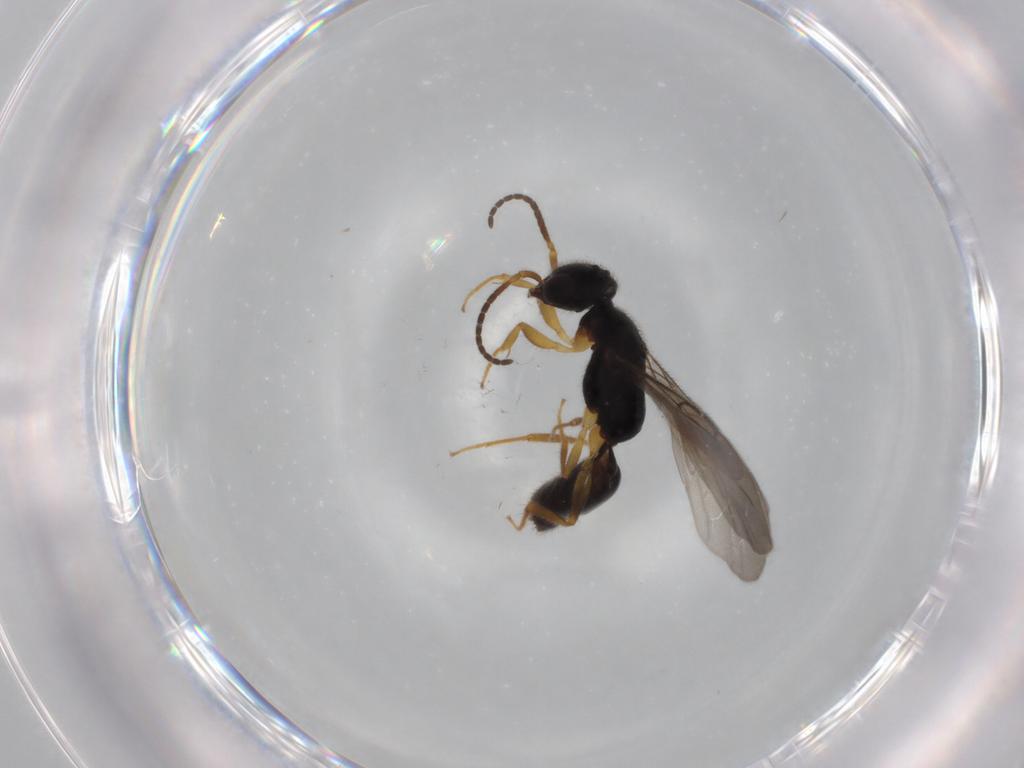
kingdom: Animalia
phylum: Arthropoda
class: Insecta
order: Hymenoptera
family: Bethylidae
